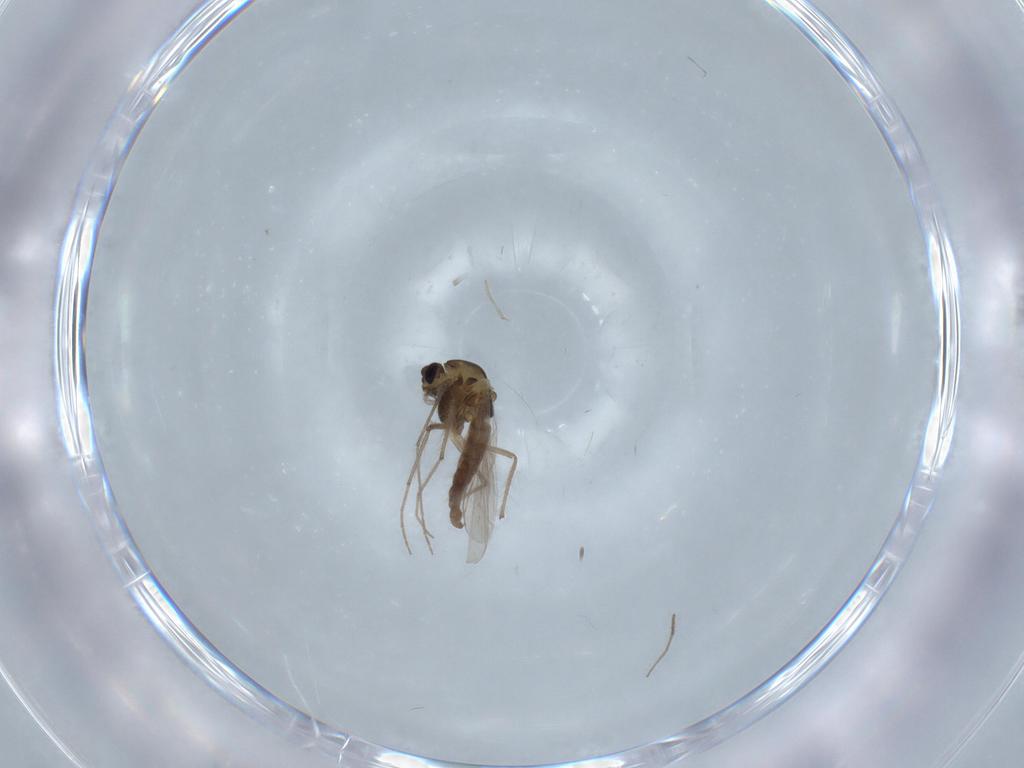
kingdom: Animalia
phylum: Arthropoda
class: Insecta
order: Diptera
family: Chironomidae
